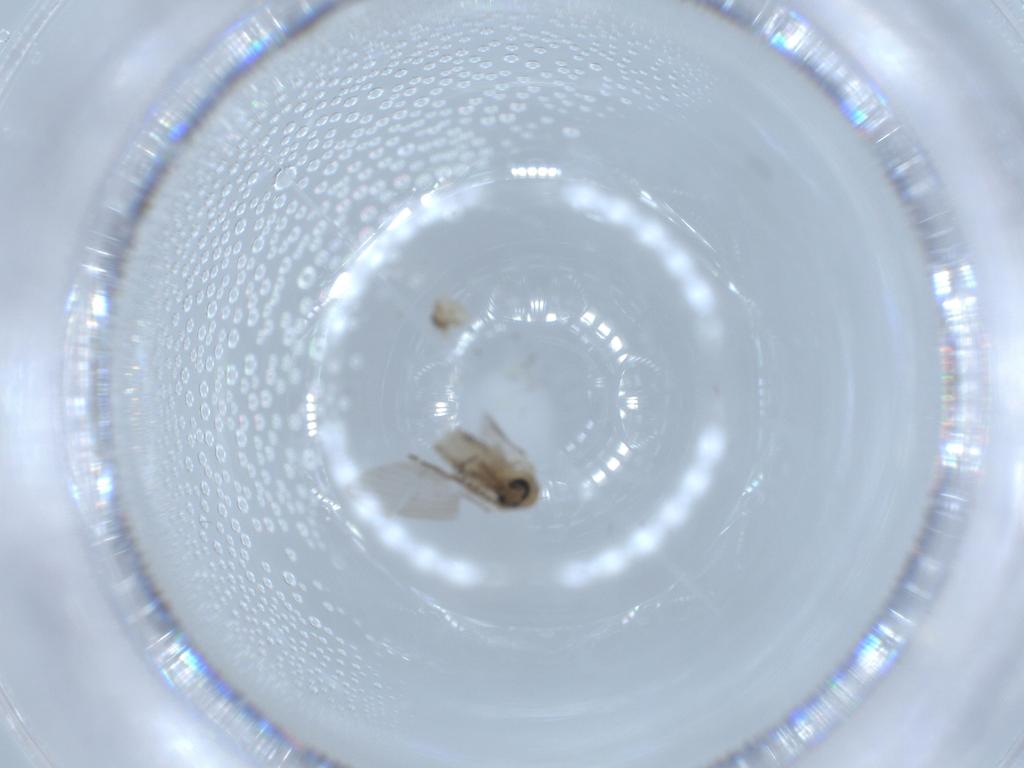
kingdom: Animalia
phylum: Arthropoda
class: Insecta
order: Diptera
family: Psychodidae
